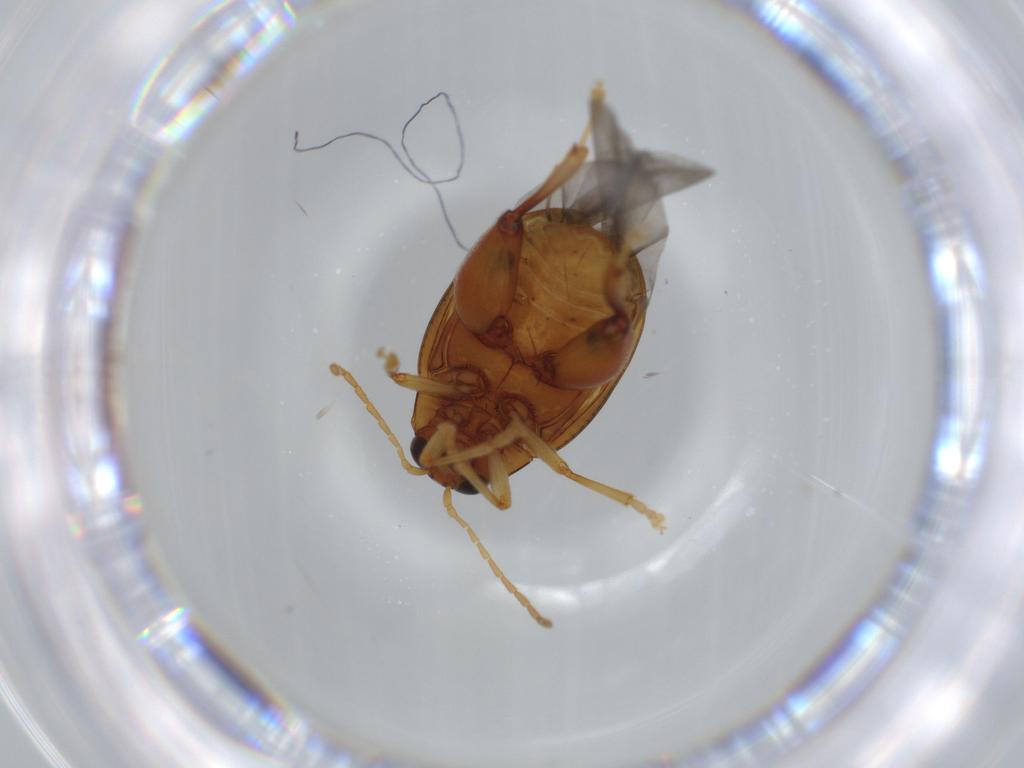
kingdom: Animalia
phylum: Arthropoda
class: Insecta
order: Coleoptera
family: Chrysomelidae
